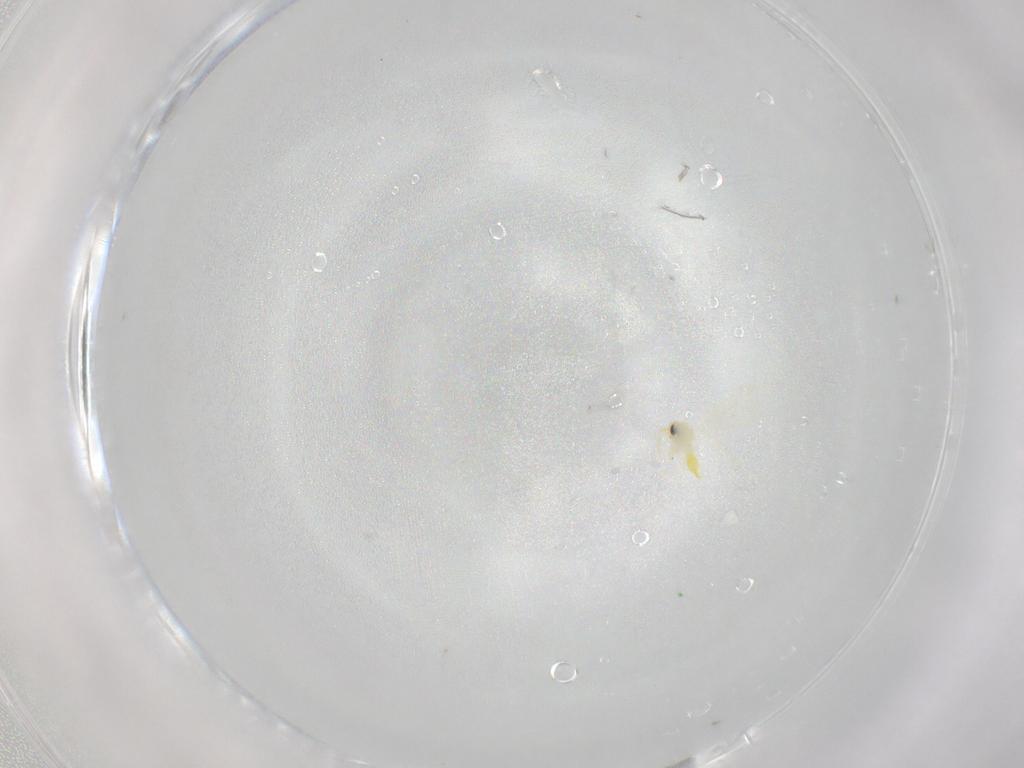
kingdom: Animalia
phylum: Arthropoda
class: Insecta
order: Hemiptera
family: Aleyrodidae
